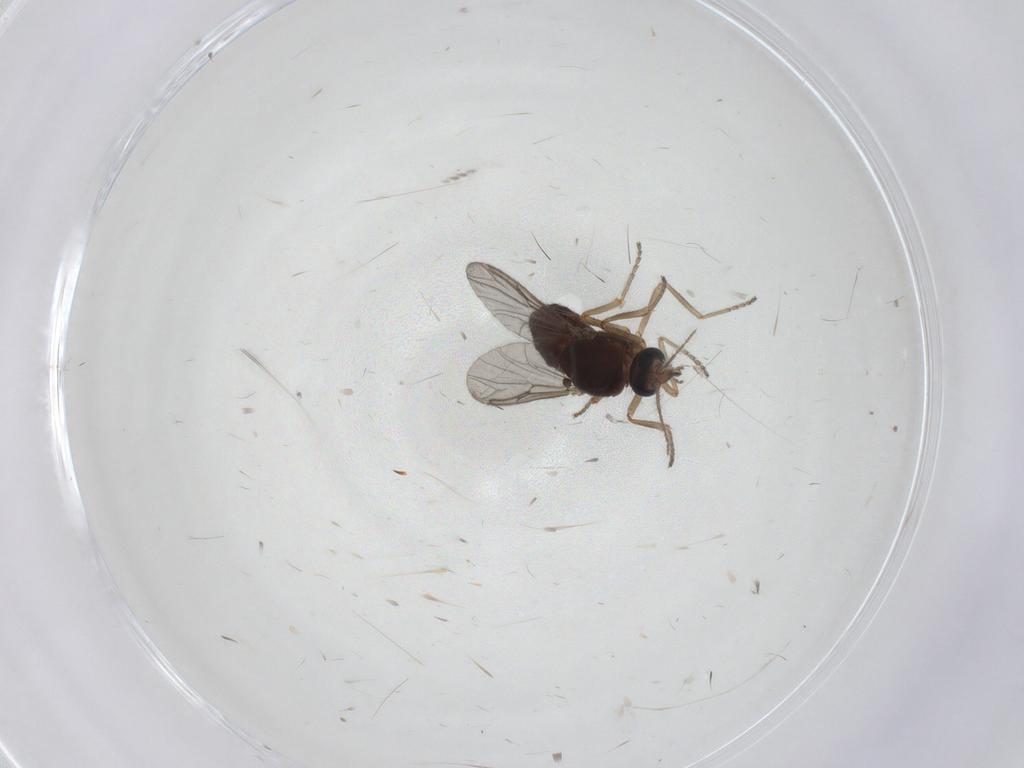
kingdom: Animalia
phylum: Arthropoda
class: Insecta
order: Diptera
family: Ceratopogonidae
